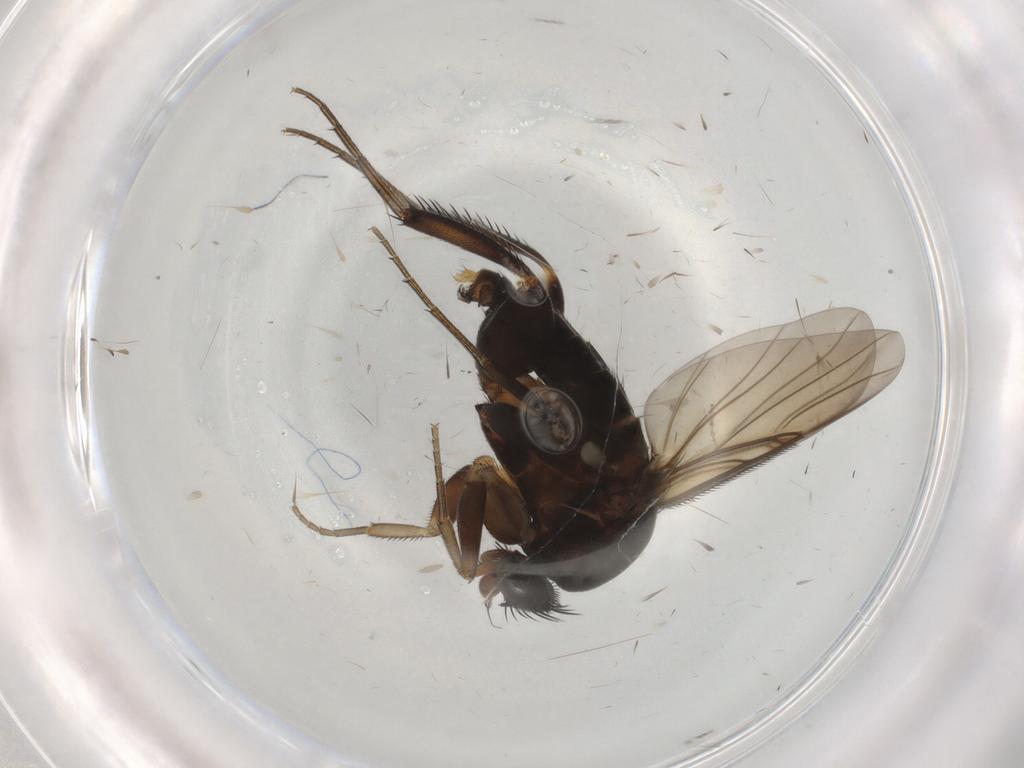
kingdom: Animalia
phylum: Arthropoda
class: Insecta
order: Diptera
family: Phoridae
